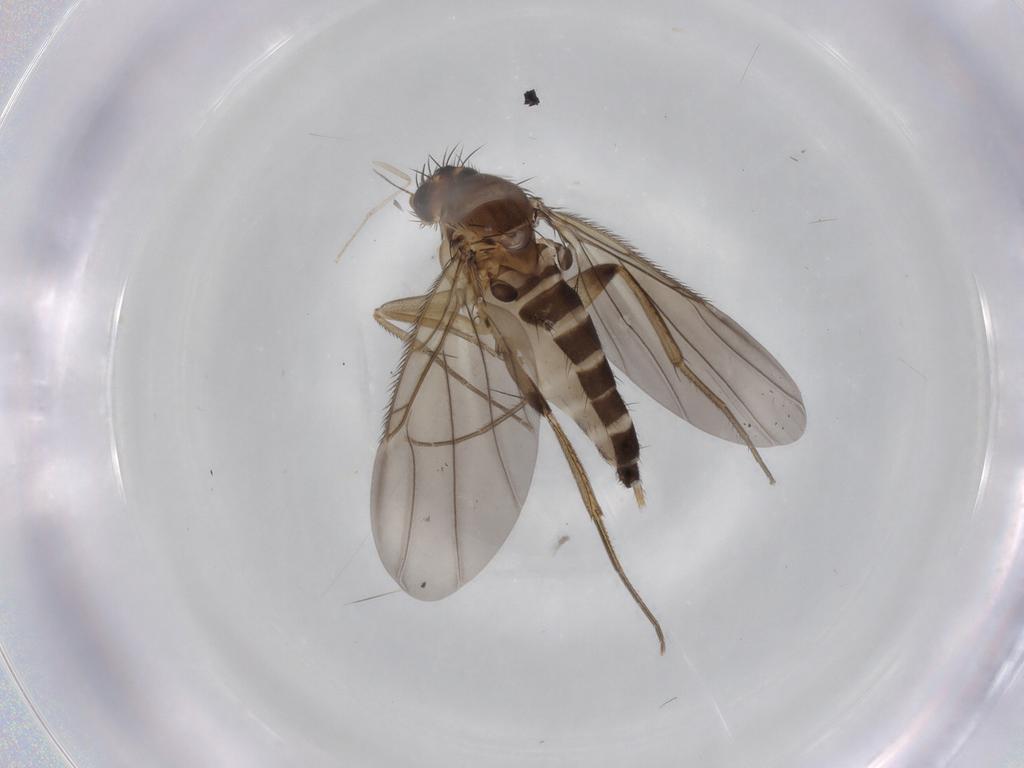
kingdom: Animalia
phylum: Arthropoda
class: Insecta
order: Diptera
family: Phoridae
